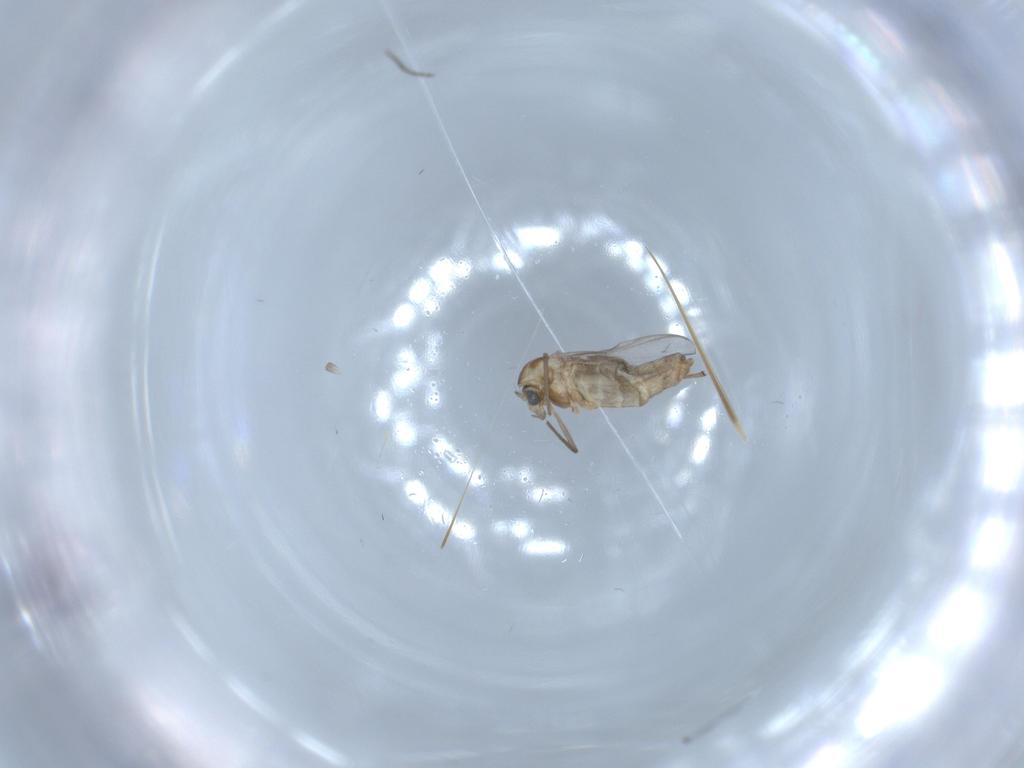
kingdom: Animalia
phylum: Arthropoda
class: Insecta
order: Diptera
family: Chironomidae
